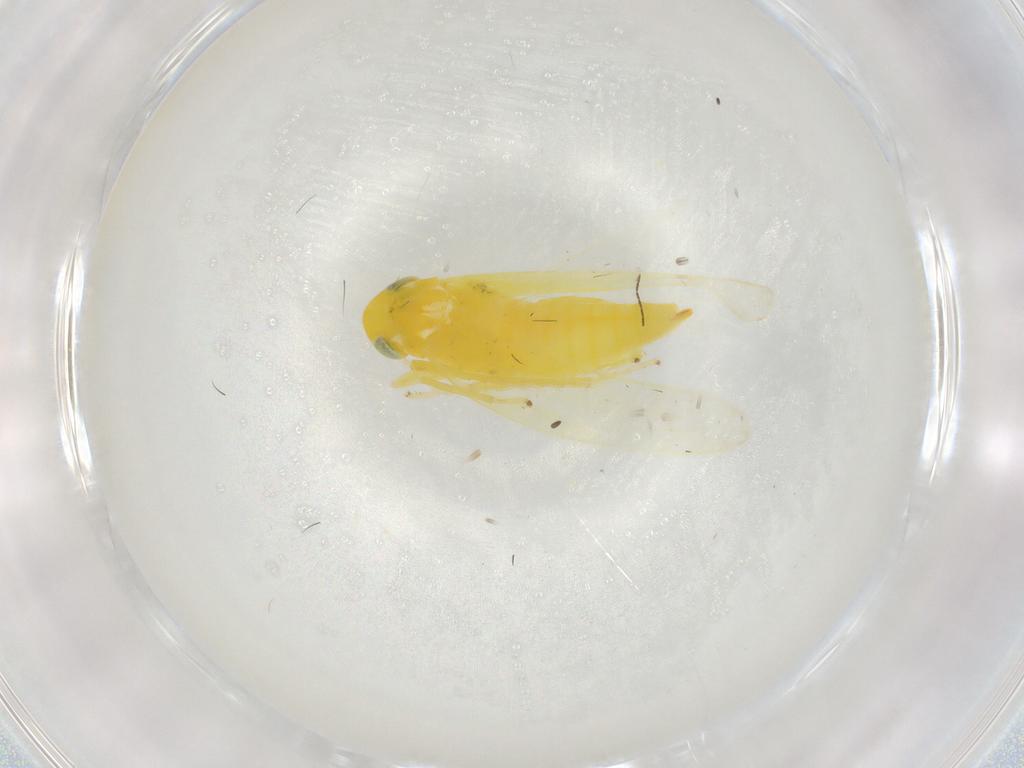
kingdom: Animalia
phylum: Arthropoda
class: Insecta
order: Hemiptera
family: Cicadellidae
